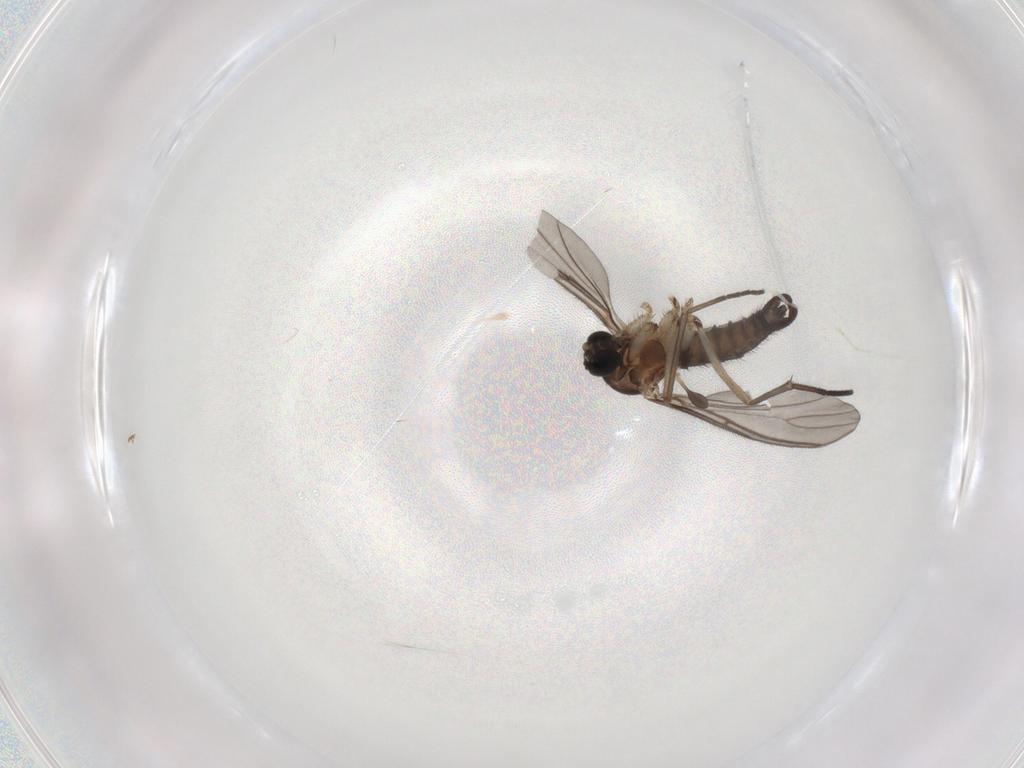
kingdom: Animalia
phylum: Arthropoda
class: Insecta
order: Diptera
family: Sciaridae
